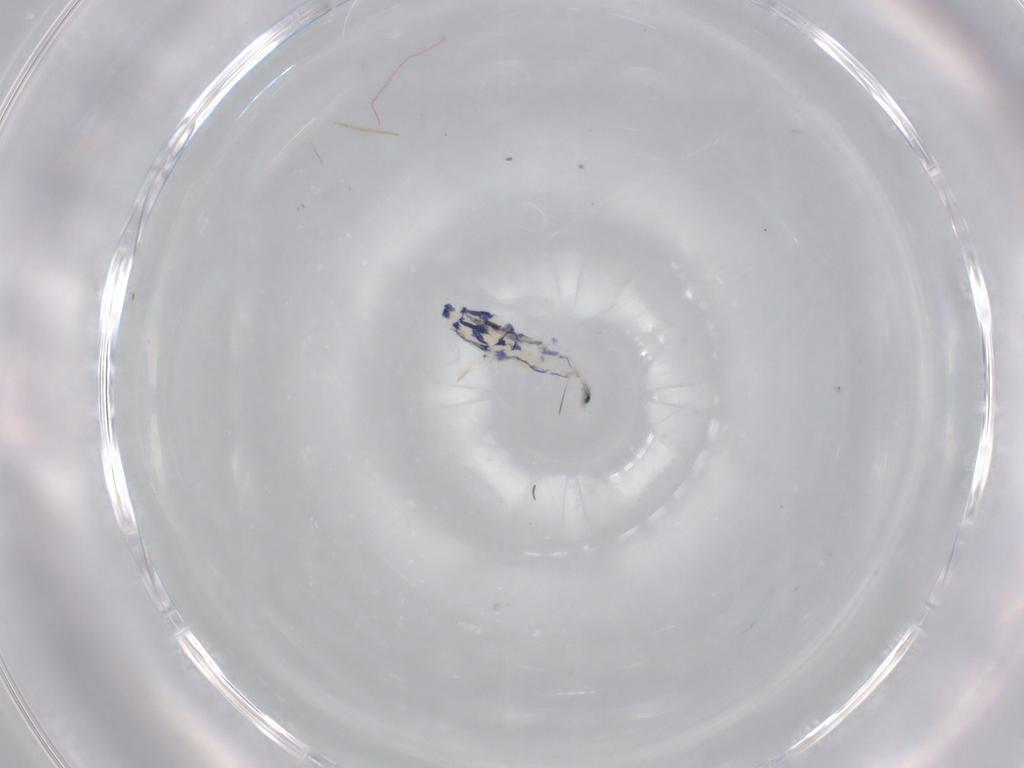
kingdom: Animalia
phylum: Arthropoda
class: Collembola
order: Entomobryomorpha
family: Entomobryidae
